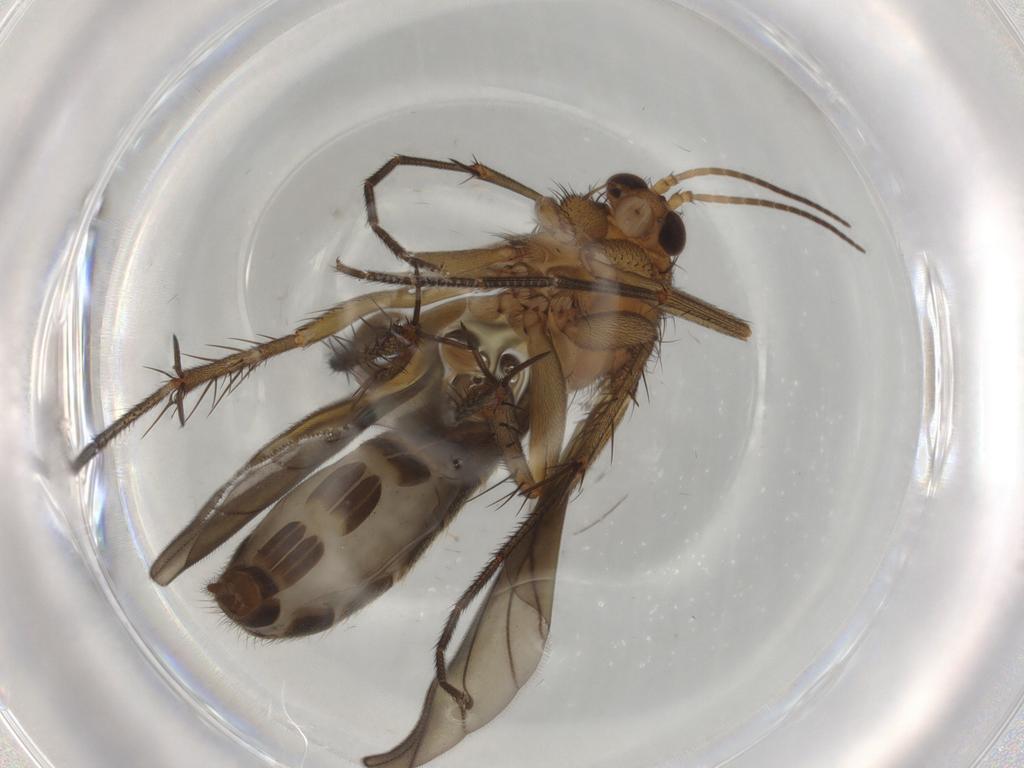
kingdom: Animalia
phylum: Arthropoda
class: Insecta
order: Diptera
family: Mycetophilidae
